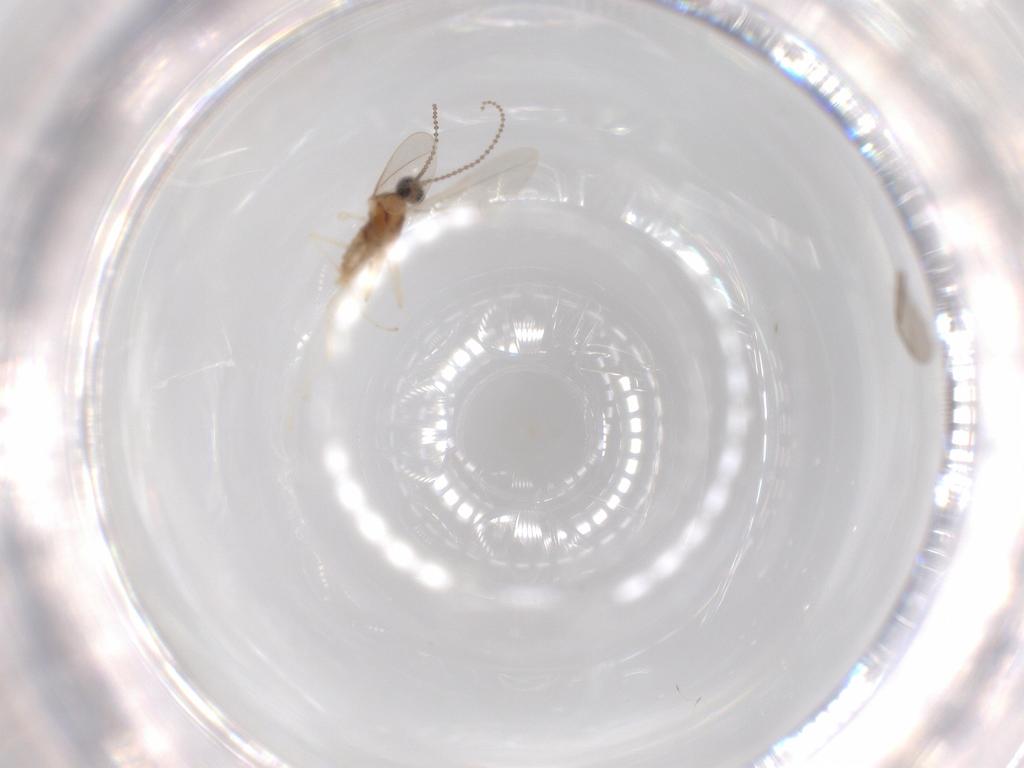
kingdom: Animalia
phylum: Arthropoda
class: Insecta
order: Diptera
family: Cecidomyiidae
